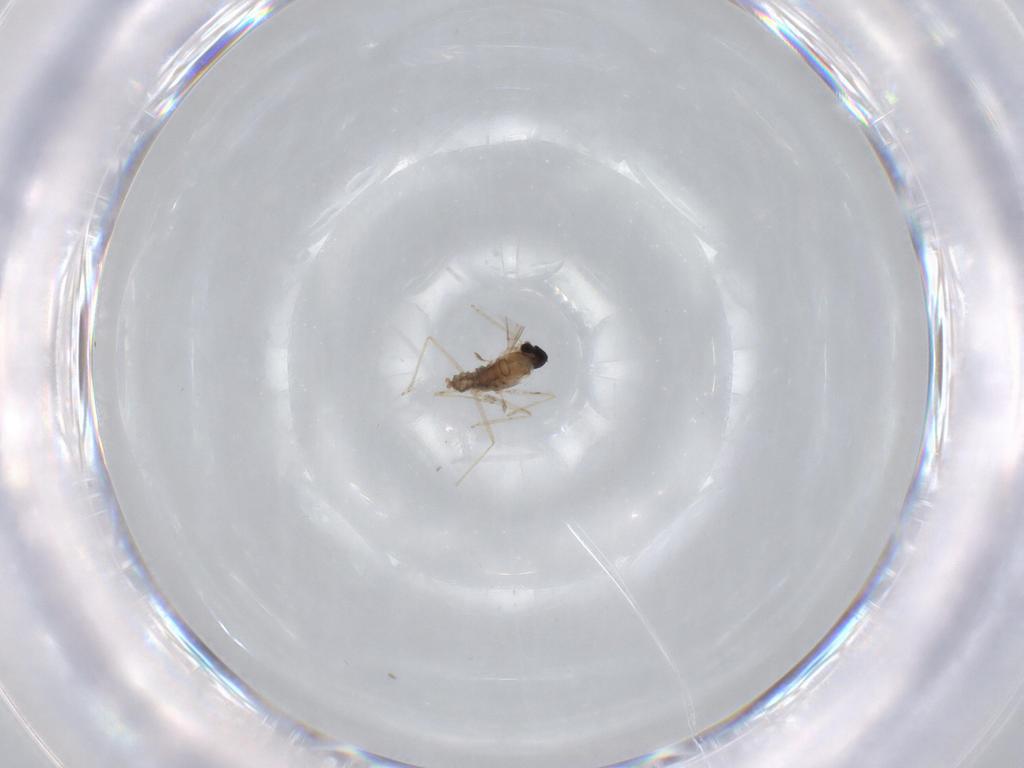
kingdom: Animalia
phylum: Arthropoda
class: Insecta
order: Diptera
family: Cecidomyiidae
